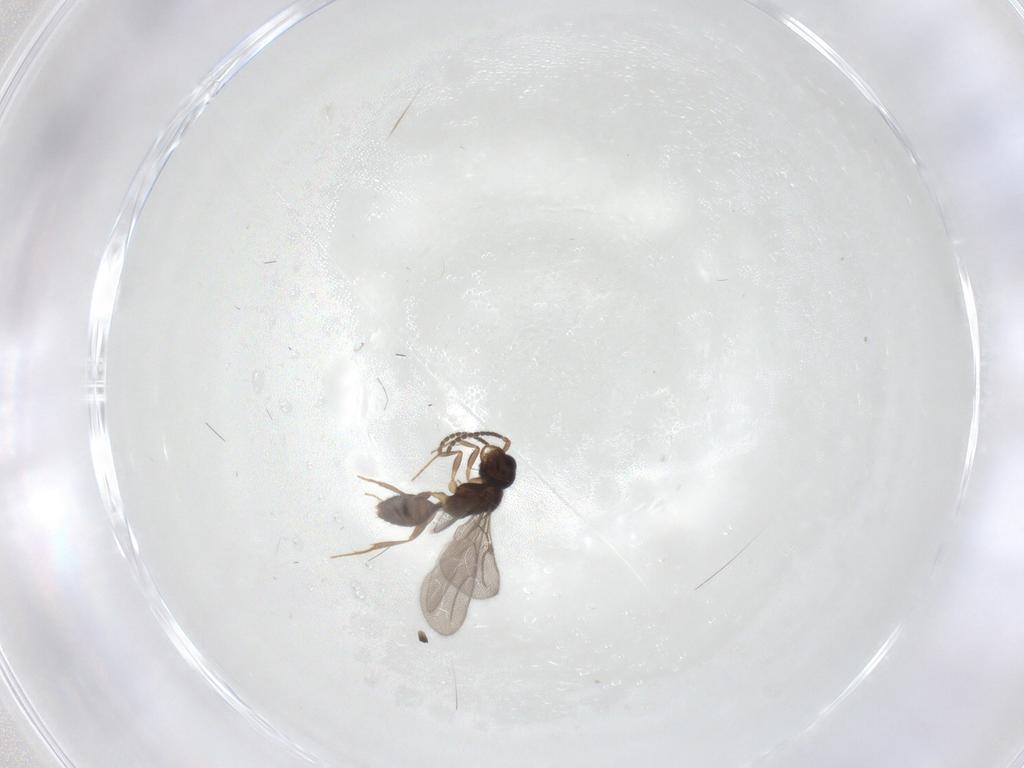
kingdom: Animalia
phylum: Arthropoda
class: Insecta
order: Hymenoptera
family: Bethylidae
